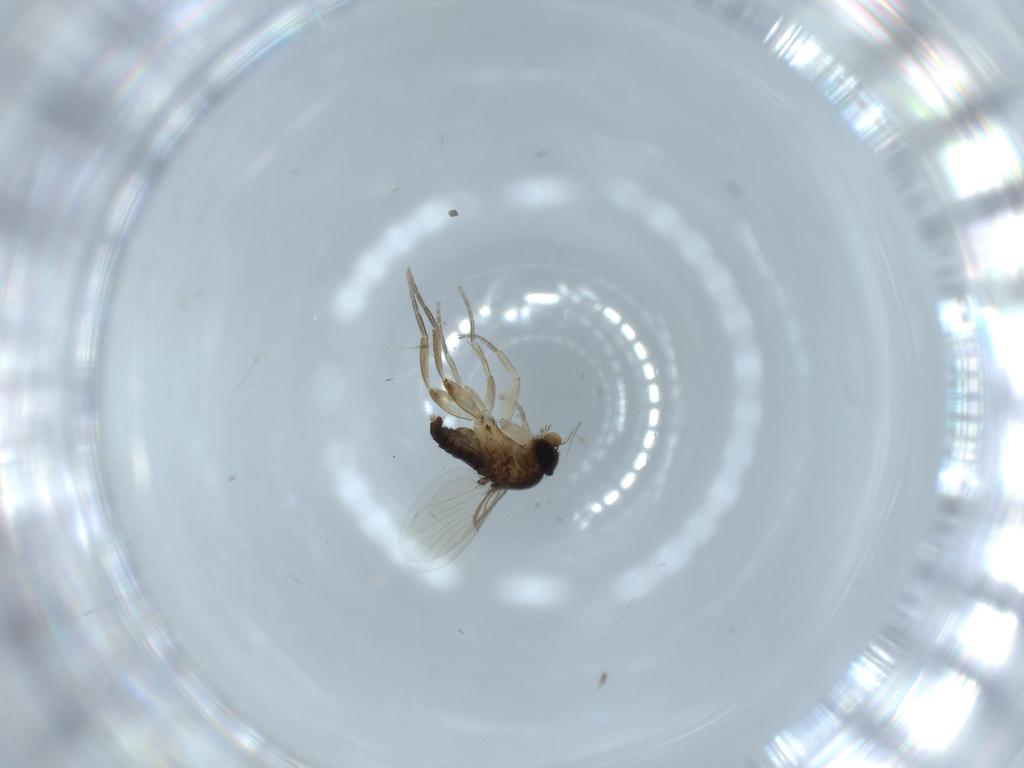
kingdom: Animalia
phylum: Arthropoda
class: Insecta
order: Diptera
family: Phoridae
